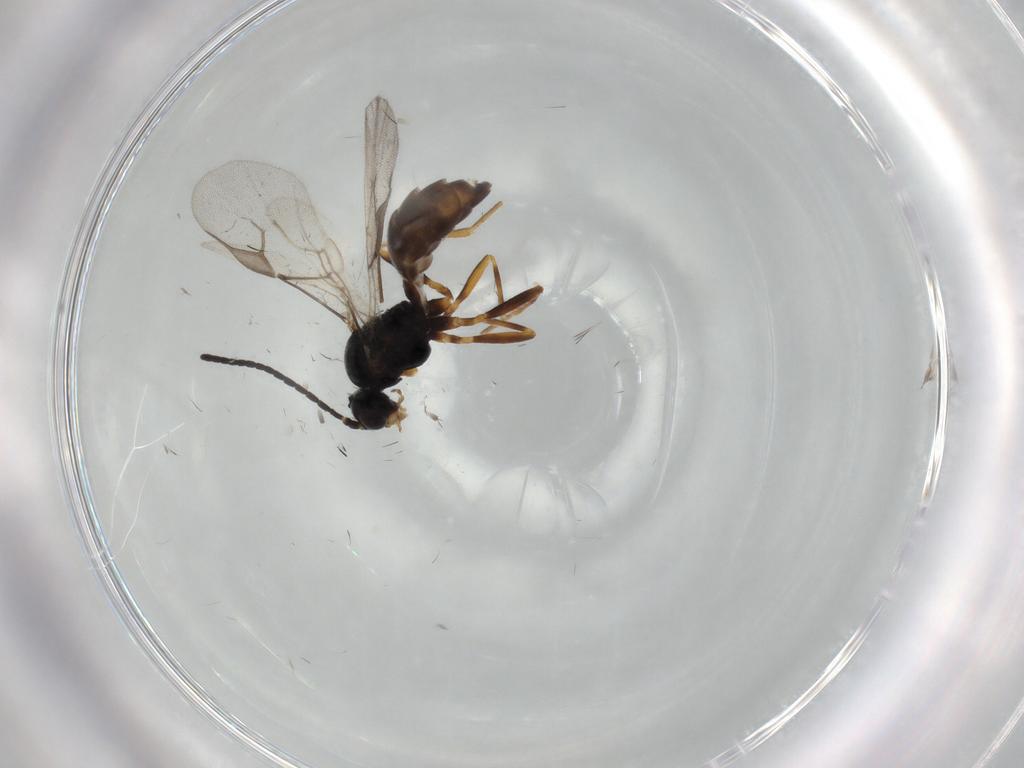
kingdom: Animalia
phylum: Arthropoda
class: Insecta
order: Hymenoptera
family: Braconidae
